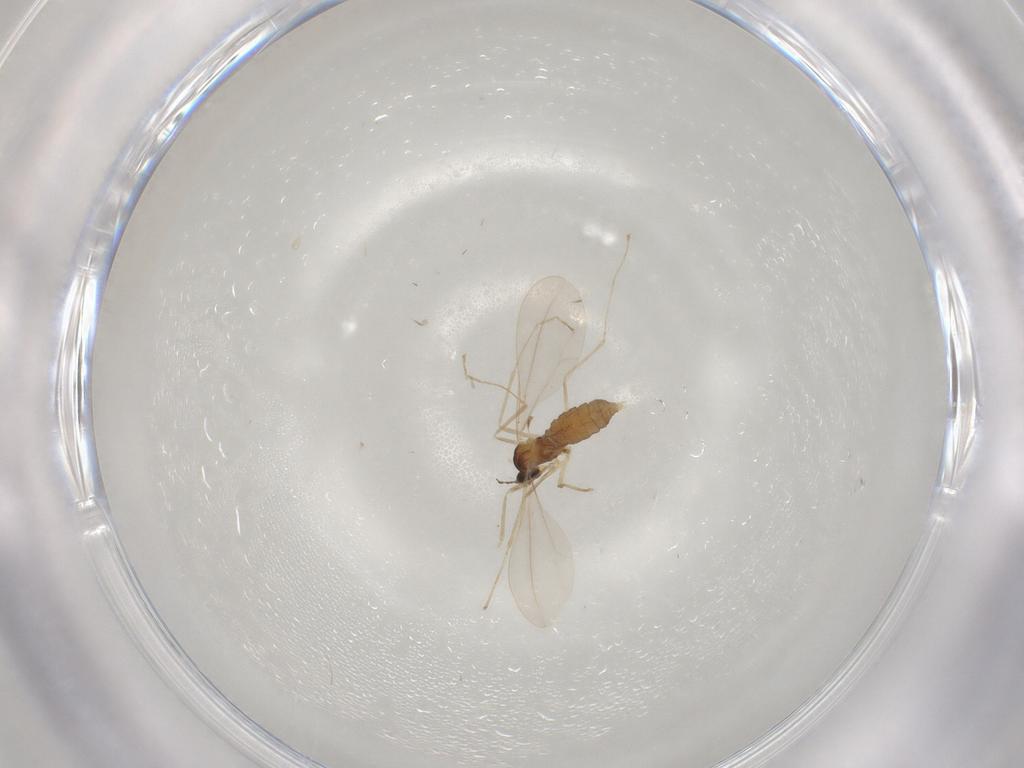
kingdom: Animalia
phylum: Arthropoda
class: Insecta
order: Diptera
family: Cecidomyiidae
